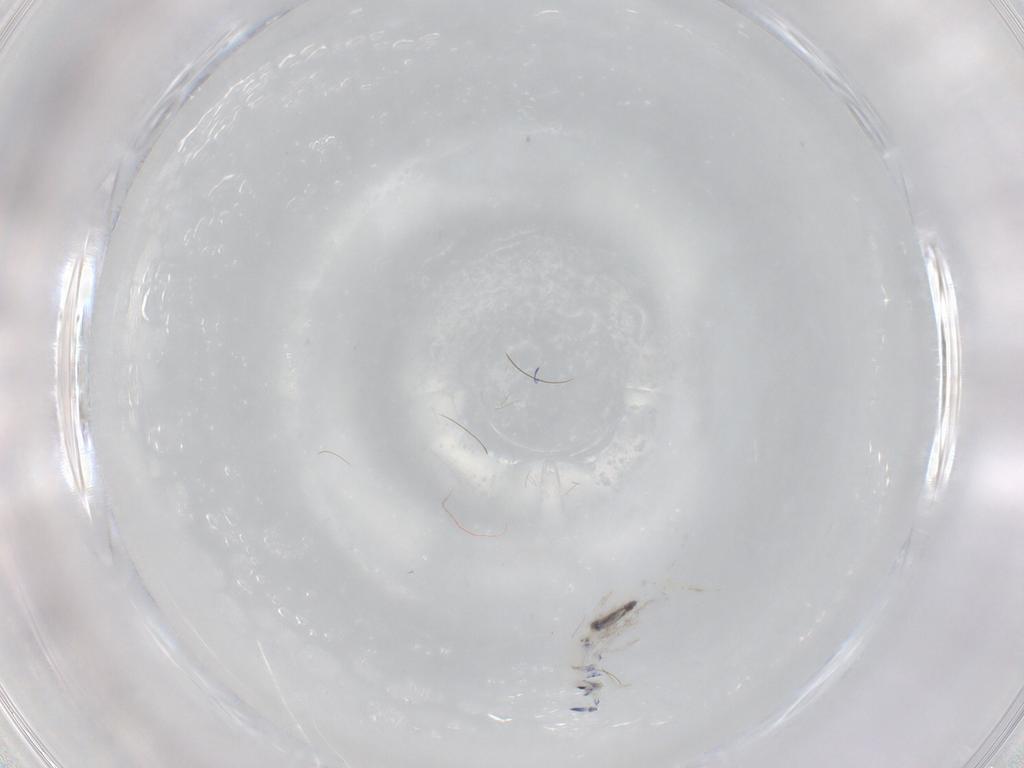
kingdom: Animalia
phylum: Arthropoda
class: Collembola
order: Entomobryomorpha
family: Entomobryidae
